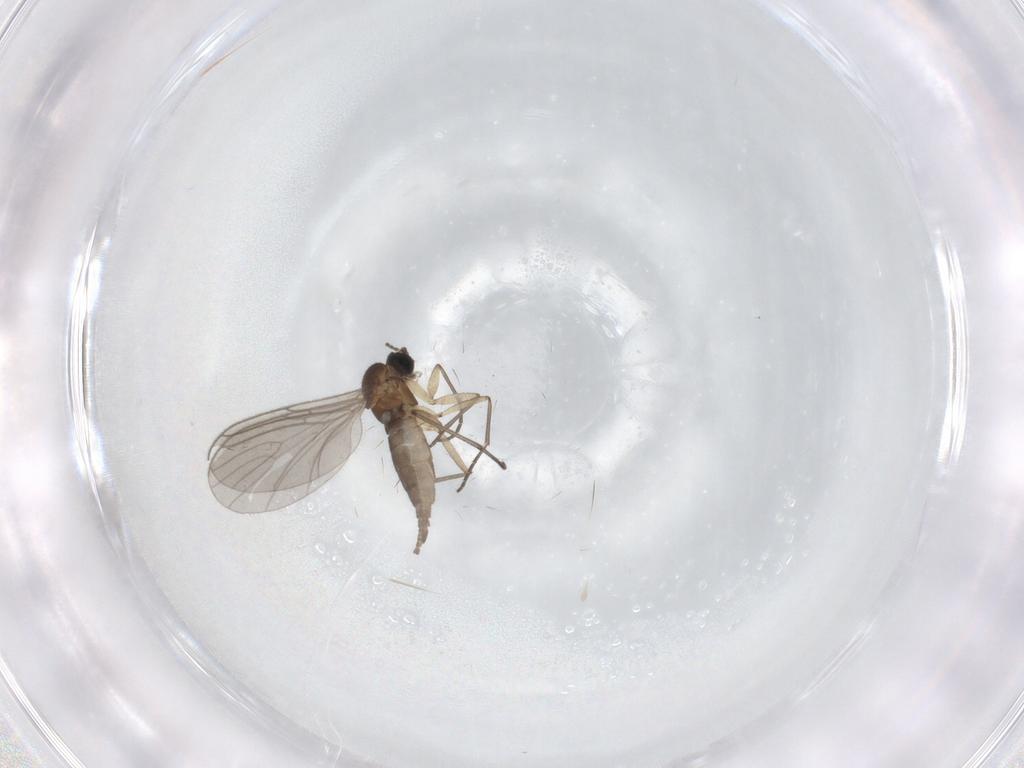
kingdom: Animalia
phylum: Arthropoda
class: Insecta
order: Diptera
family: Sciaridae
